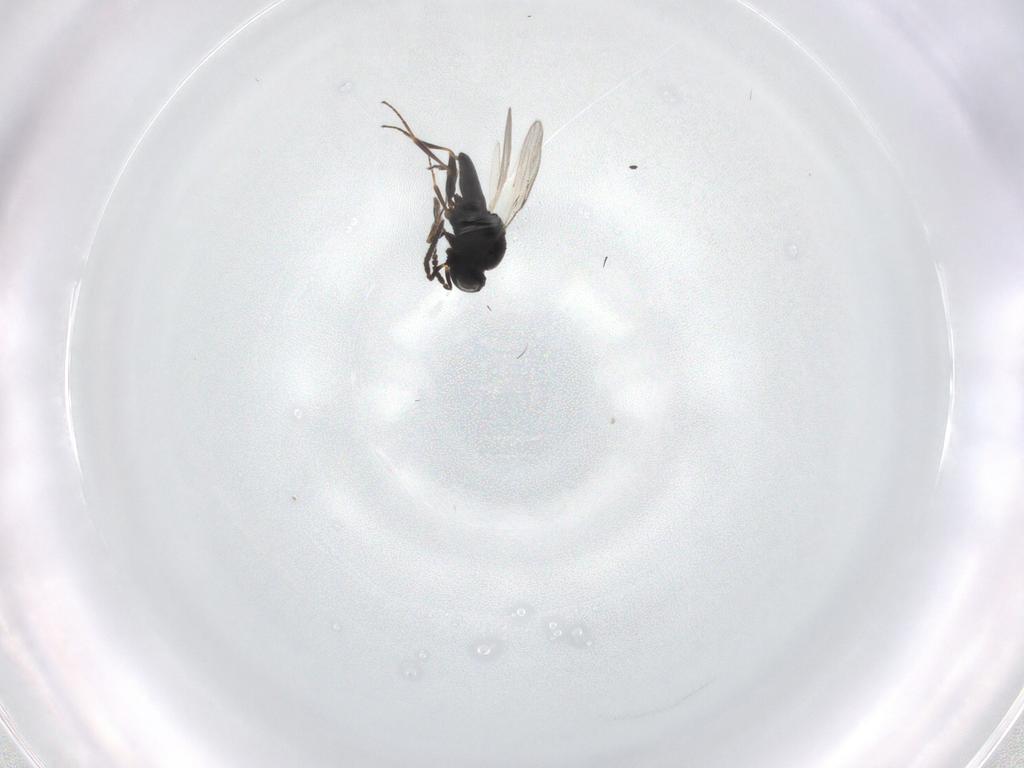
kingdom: Animalia
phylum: Arthropoda
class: Insecta
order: Hymenoptera
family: Scelionidae
